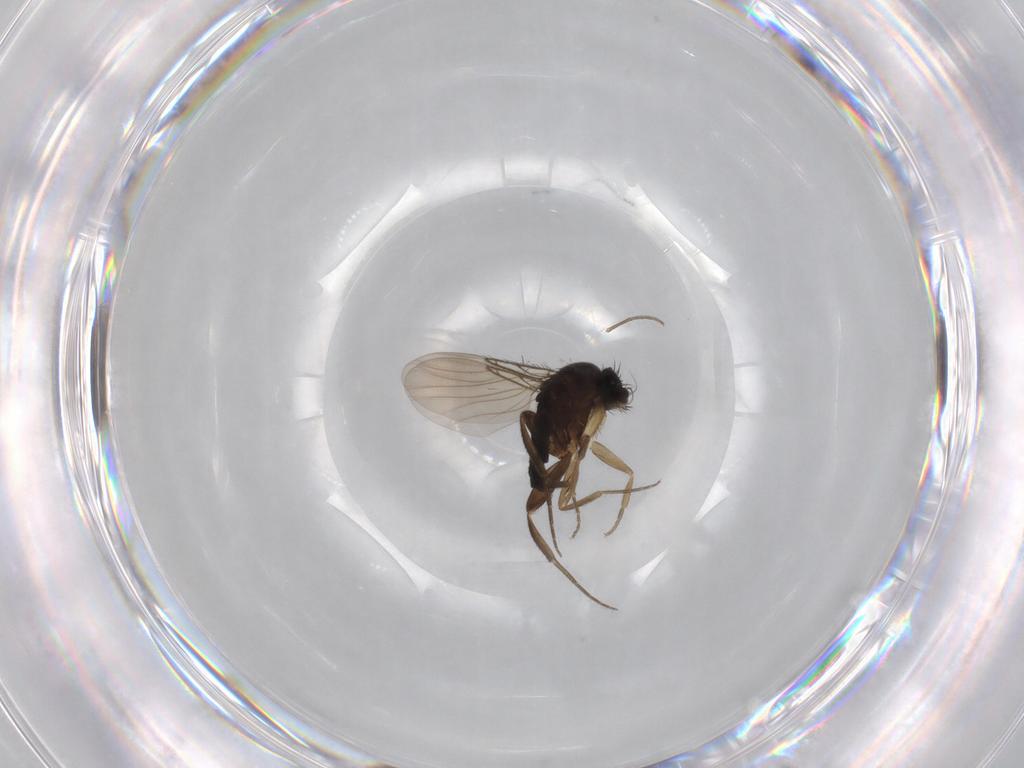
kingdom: Animalia
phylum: Arthropoda
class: Insecta
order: Diptera
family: Phoridae
